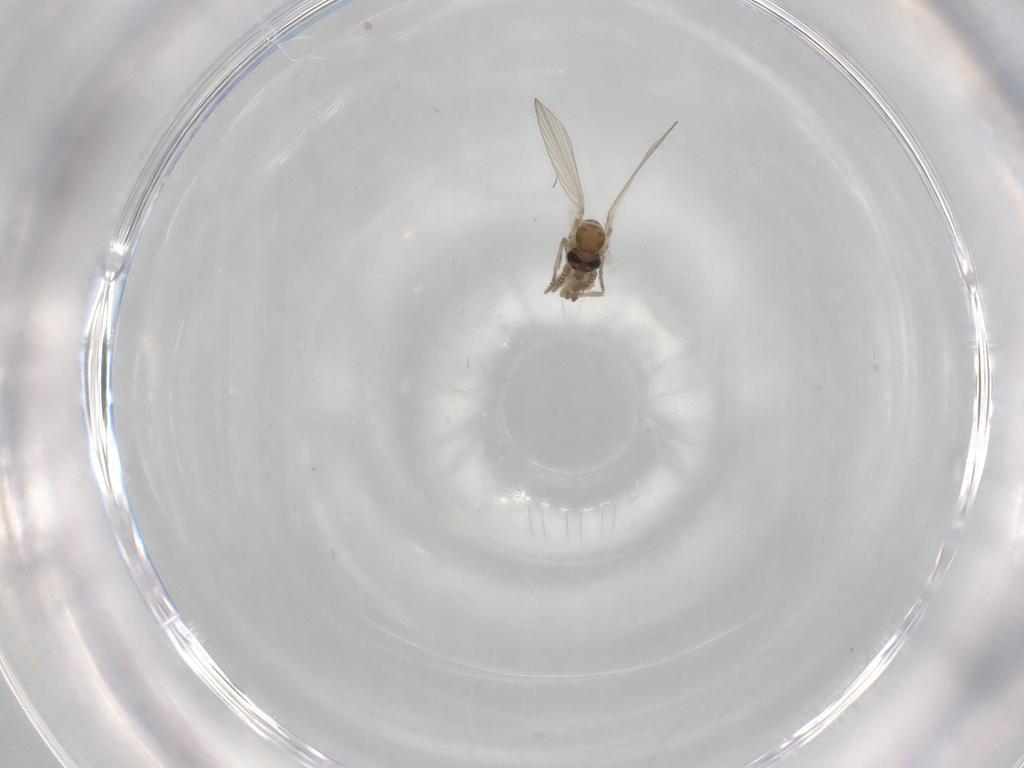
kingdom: Animalia
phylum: Arthropoda
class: Insecta
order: Diptera
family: Psychodidae
